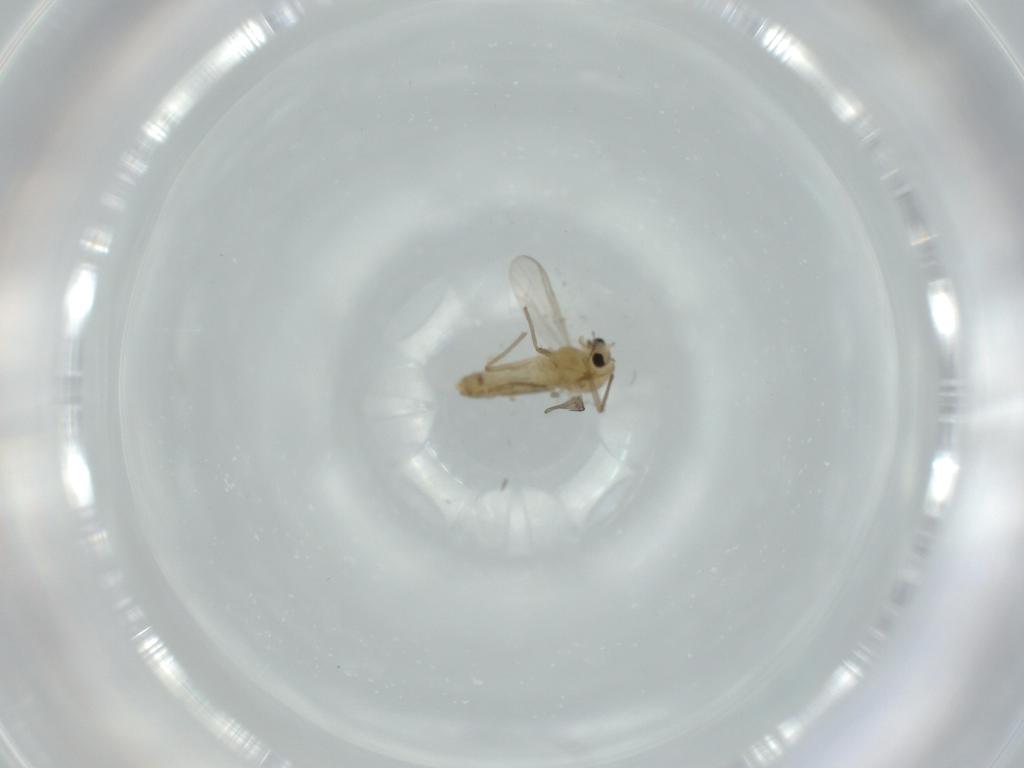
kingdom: Animalia
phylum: Arthropoda
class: Insecta
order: Diptera
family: Chironomidae
